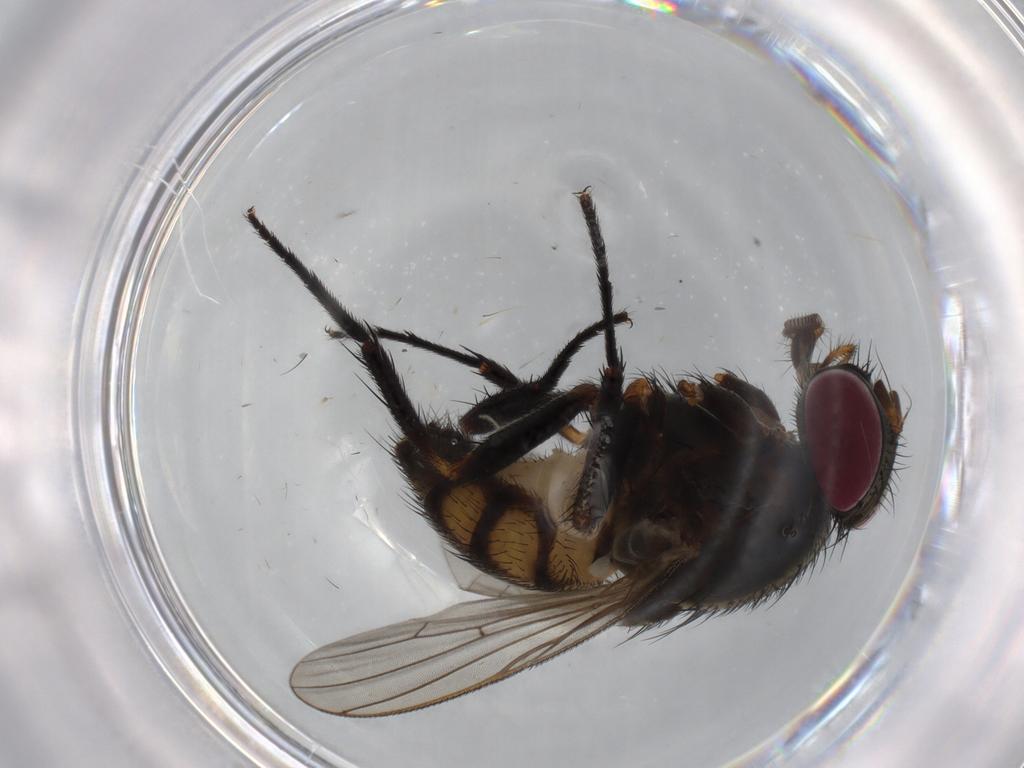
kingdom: Animalia
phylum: Arthropoda
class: Insecta
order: Diptera
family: Fannia
